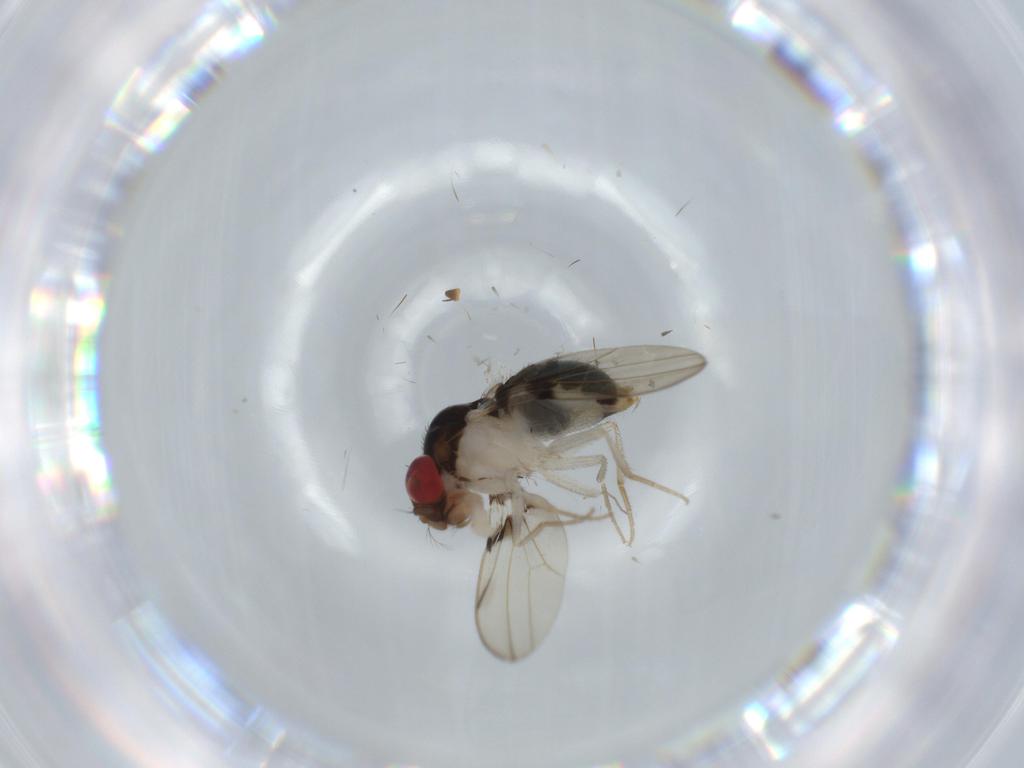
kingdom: Animalia
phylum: Arthropoda
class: Insecta
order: Diptera
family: Drosophilidae
